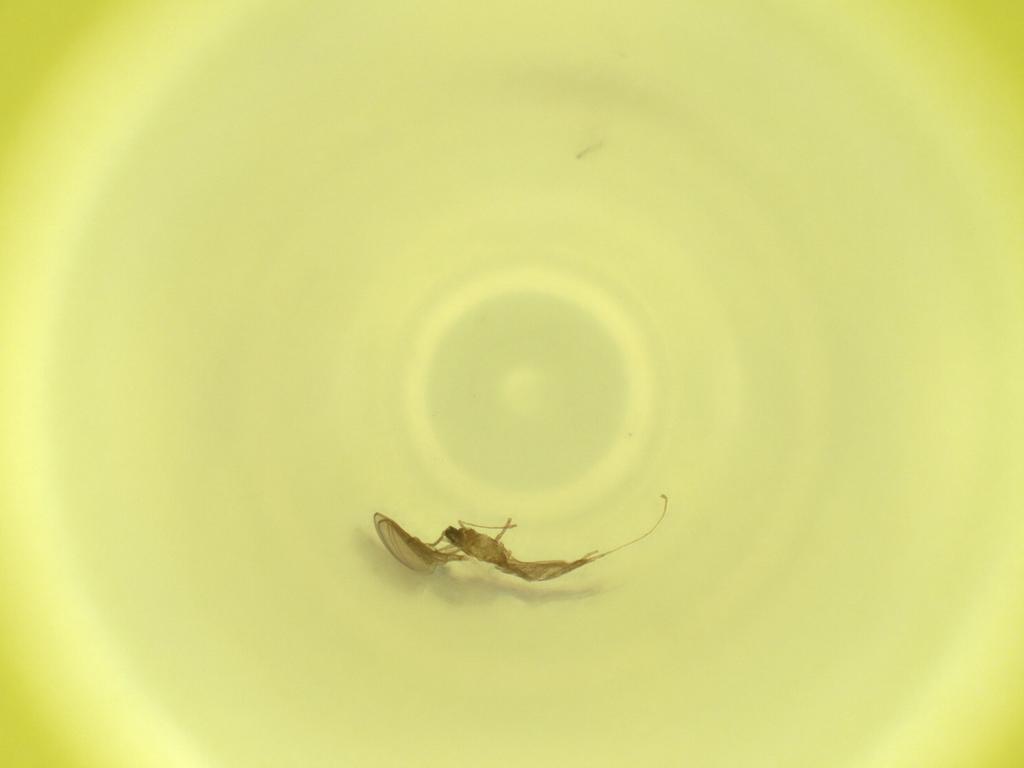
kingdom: Animalia
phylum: Arthropoda
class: Insecta
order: Diptera
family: Cecidomyiidae
